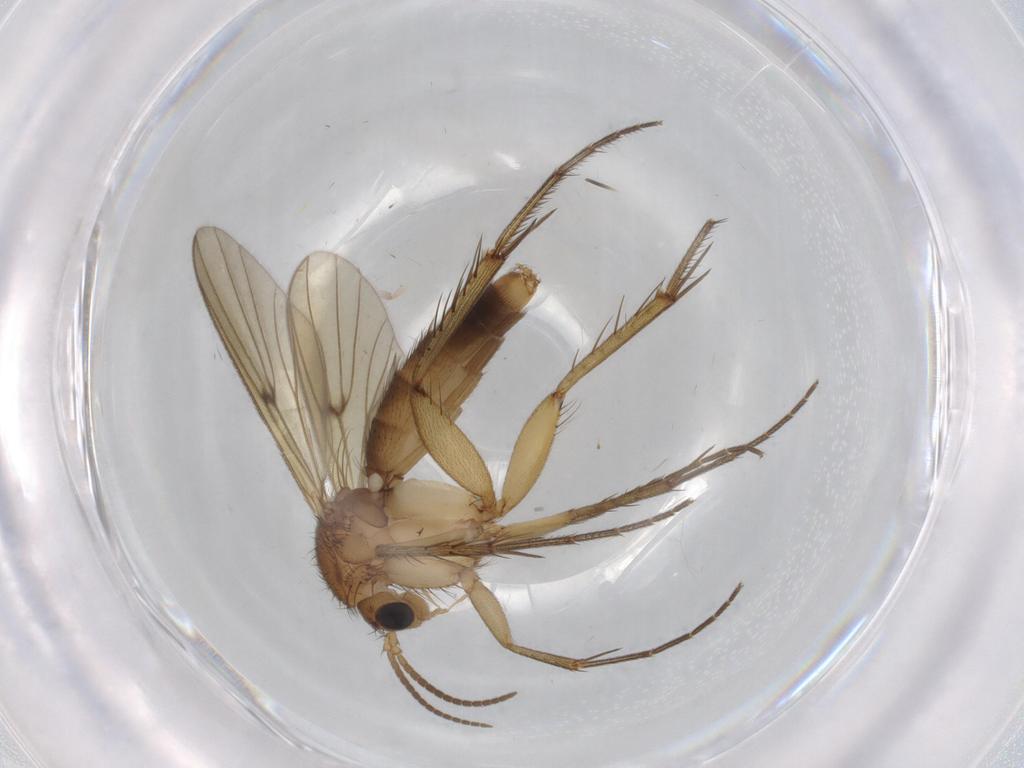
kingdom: Animalia
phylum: Arthropoda
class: Insecta
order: Diptera
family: Mycetophilidae
